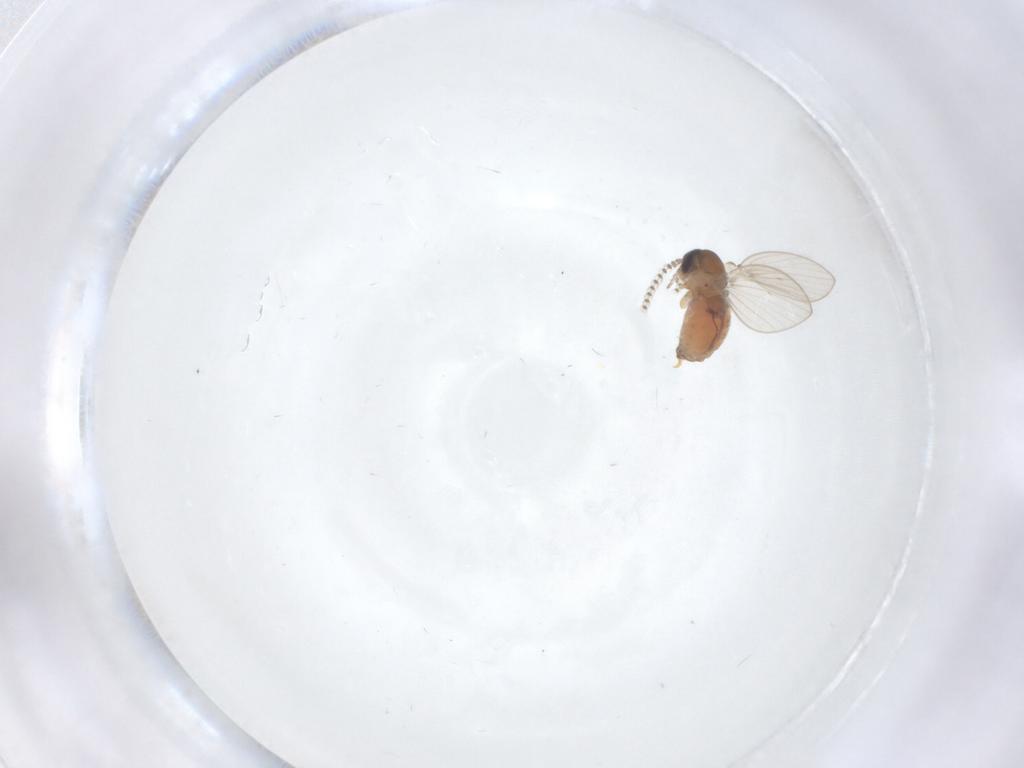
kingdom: Animalia
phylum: Arthropoda
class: Insecta
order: Diptera
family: Psychodidae
